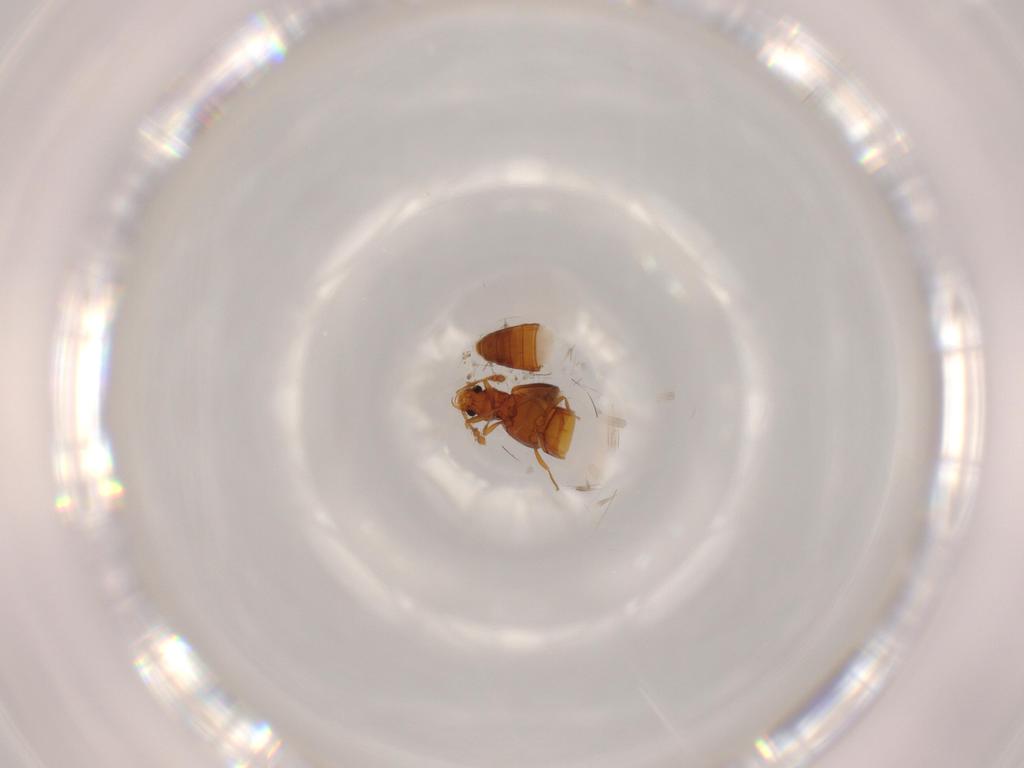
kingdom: Animalia
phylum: Arthropoda
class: Insecta
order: Coleoptera
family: Staphylinidae
